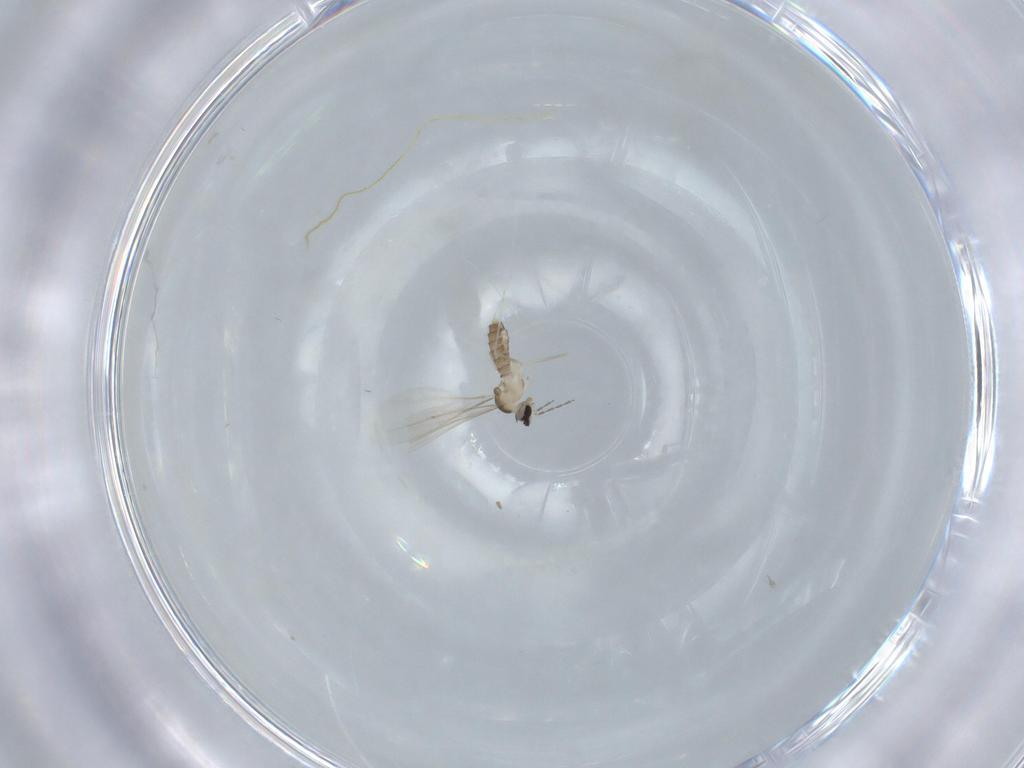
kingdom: Animalia
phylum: Arthropoda
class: Insecta
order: Diptera
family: Cecidomyiidae
